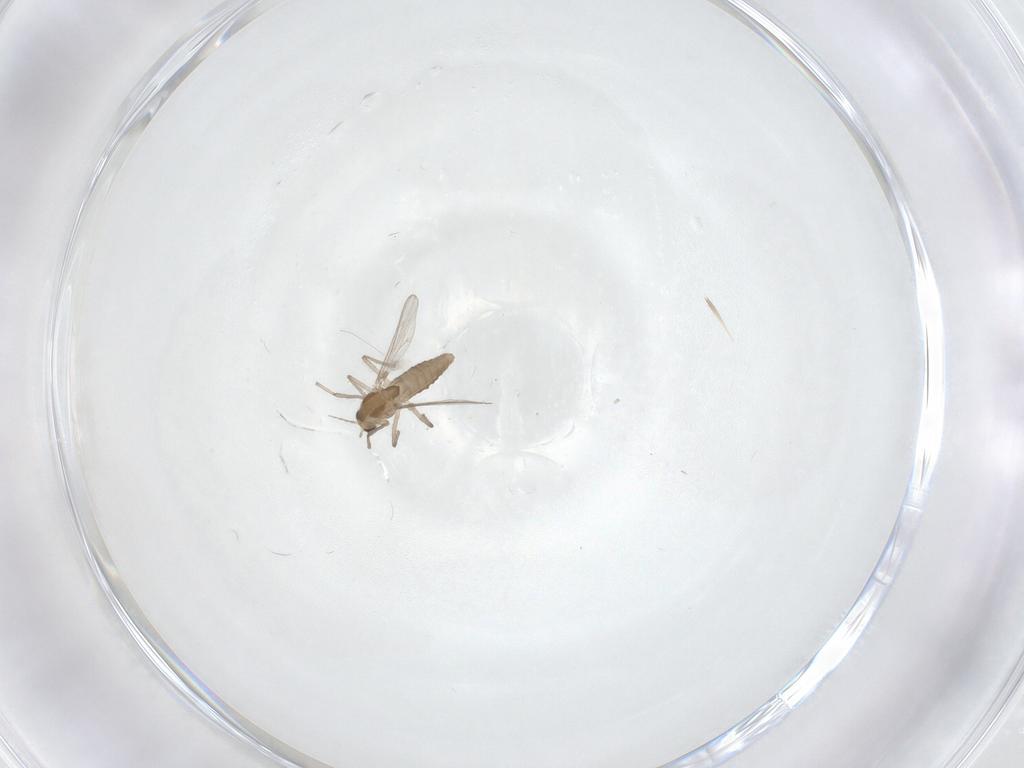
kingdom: Animalia
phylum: Arthropoda
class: Insecta
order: Diptera
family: Chironomidae
